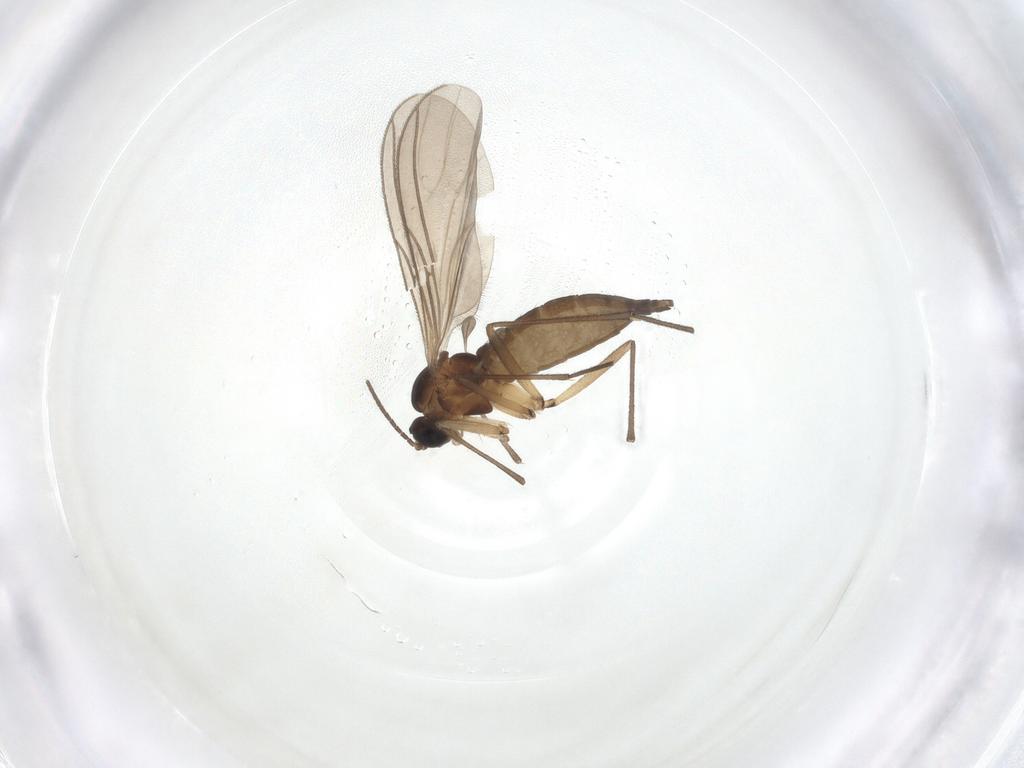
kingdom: Animalia
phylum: Arthropoda
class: Insecta
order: Diptera
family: Sciaridae
